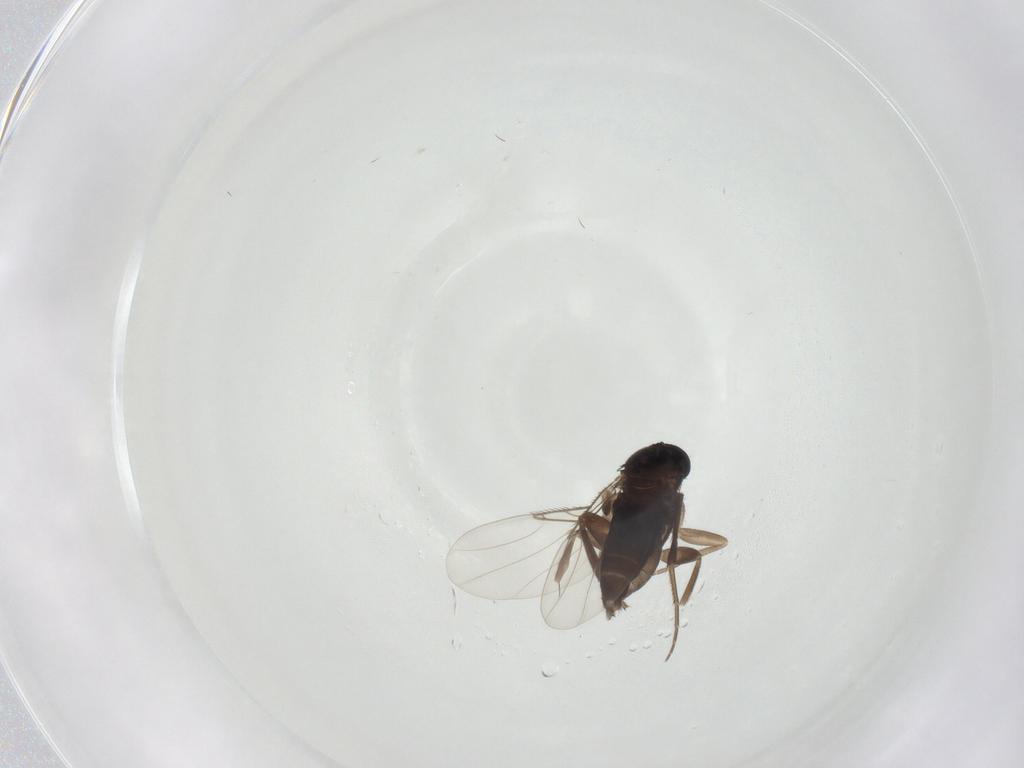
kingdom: Animalia
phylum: Arthropoda
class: Insecta
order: Diptera
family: Phoridae
